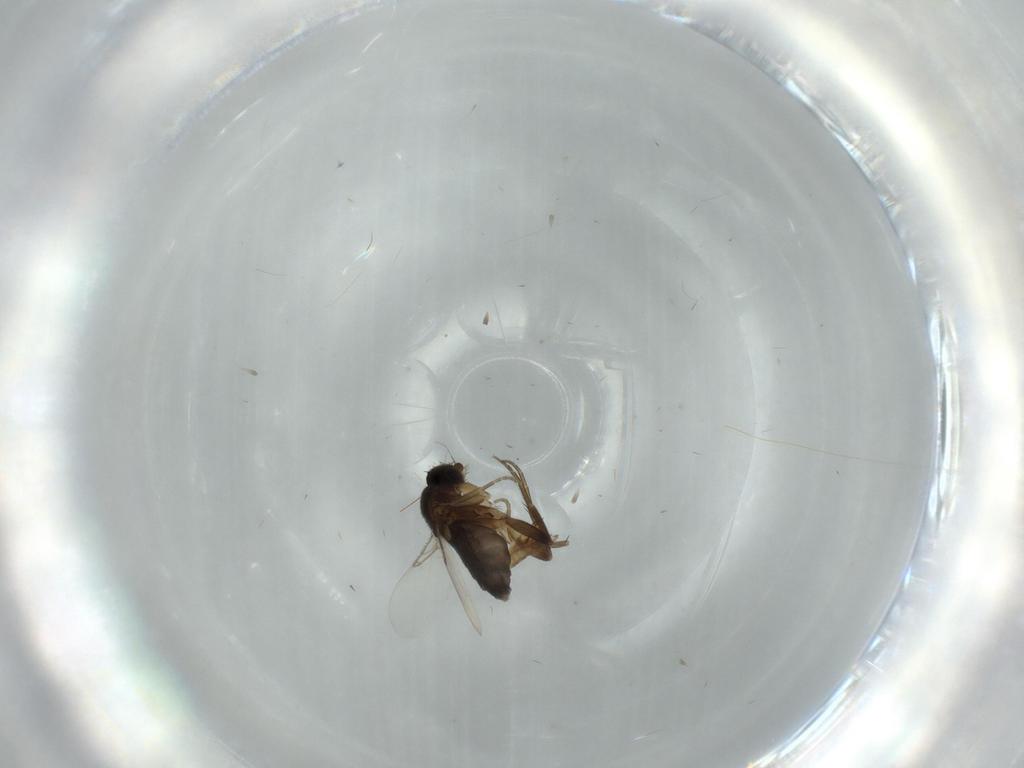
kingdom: Animalia
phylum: Arthropoda
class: Insecta
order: Diptera
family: Phoridae
